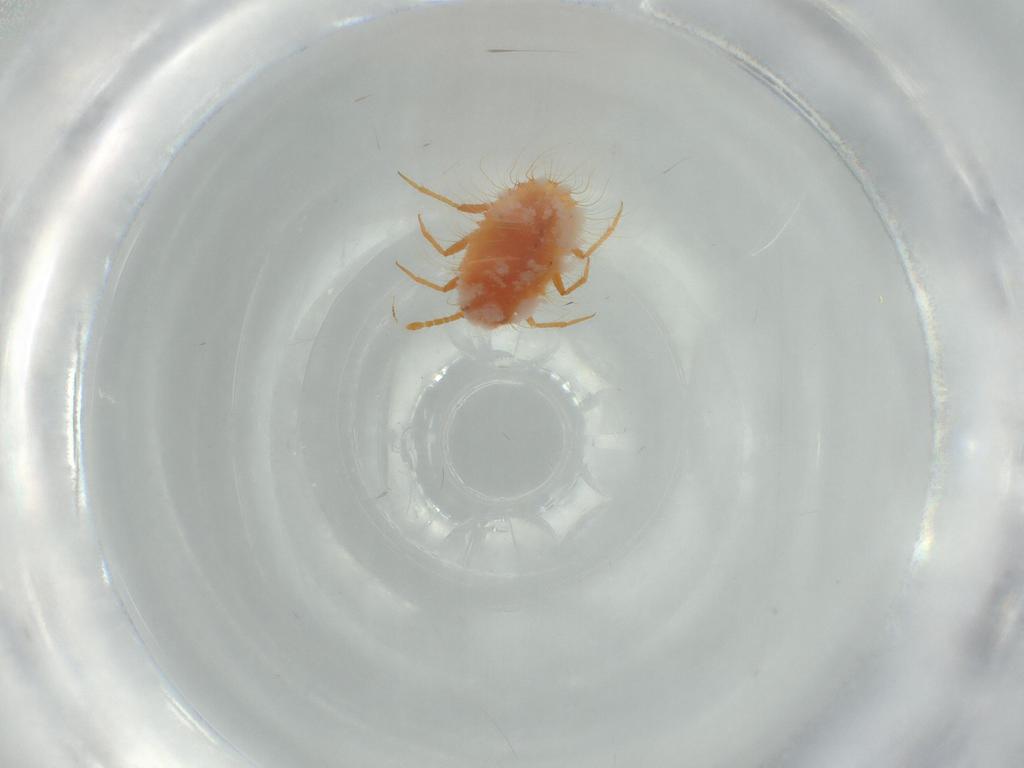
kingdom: Animalia
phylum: Arthropoda
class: Insecta
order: Hemiptera
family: Coccoidea_incertae_sedis
